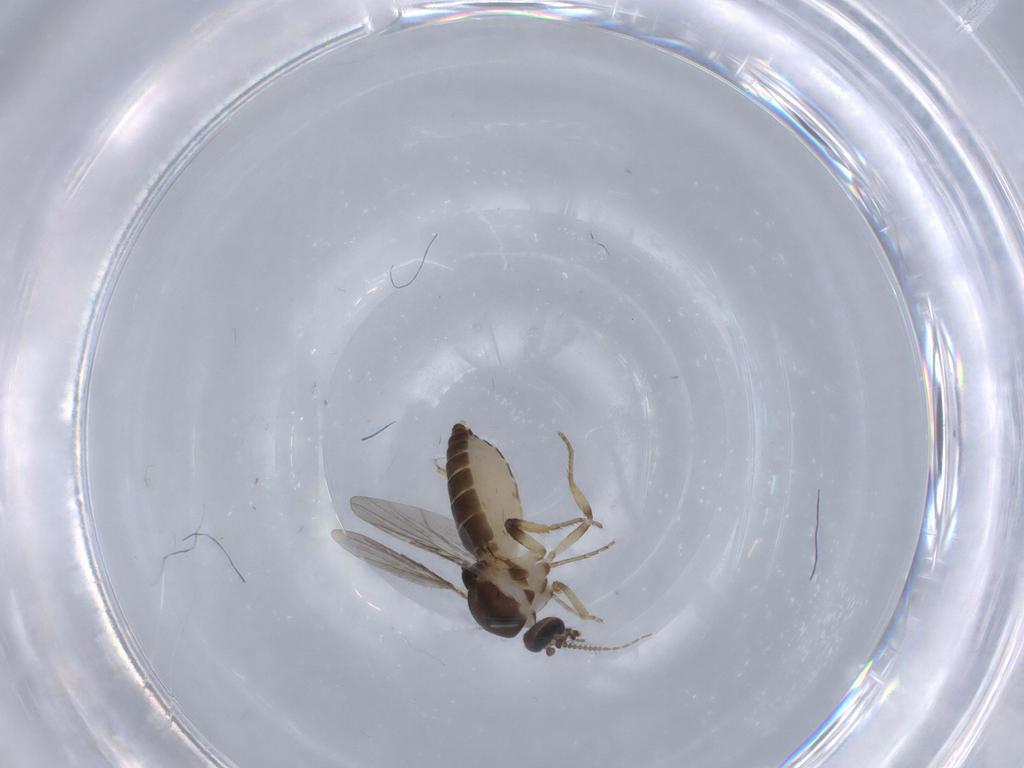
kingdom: Animalia
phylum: Arthropoda
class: Insecta
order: Diptera
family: Ceratopogonidae
